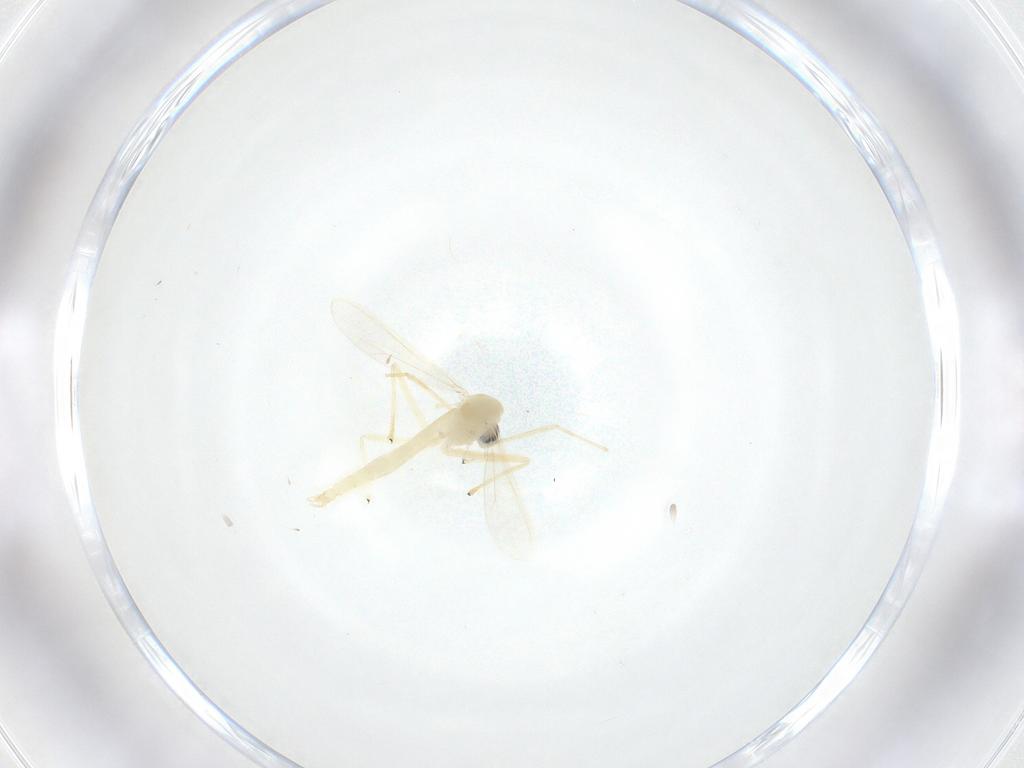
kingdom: Animalia
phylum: Arthropoda
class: Insecta
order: Diptera
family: Chironomidae
